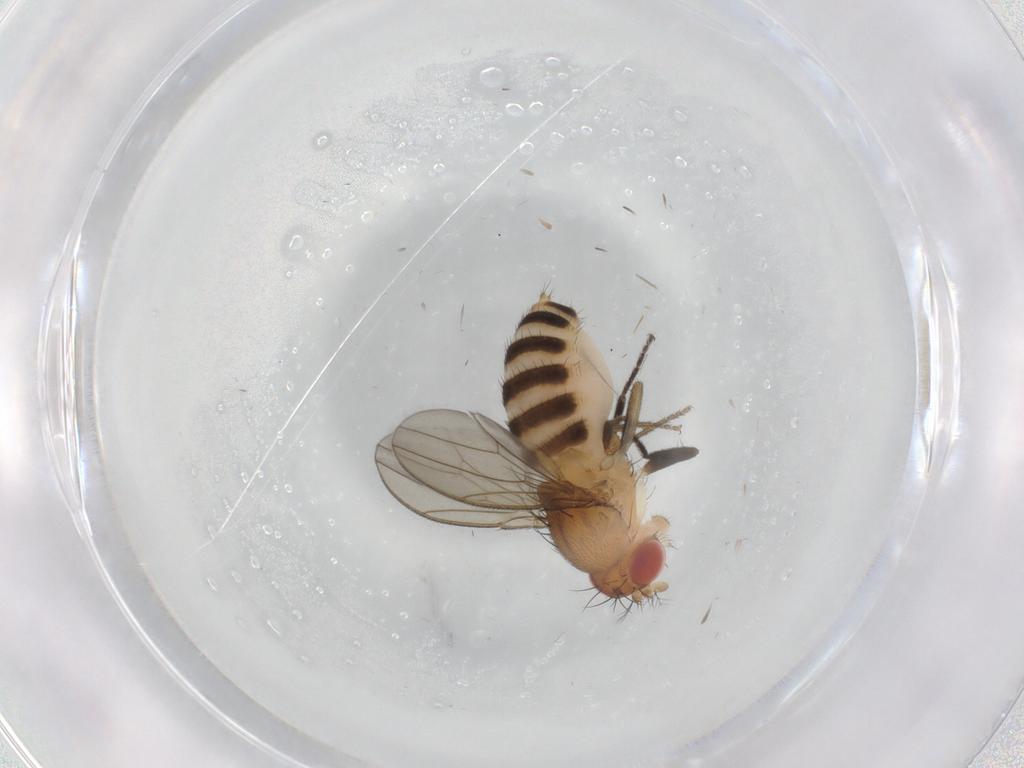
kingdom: Animalia
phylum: Arthropoda
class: Insecta
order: Diptera
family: Drosophilidae
